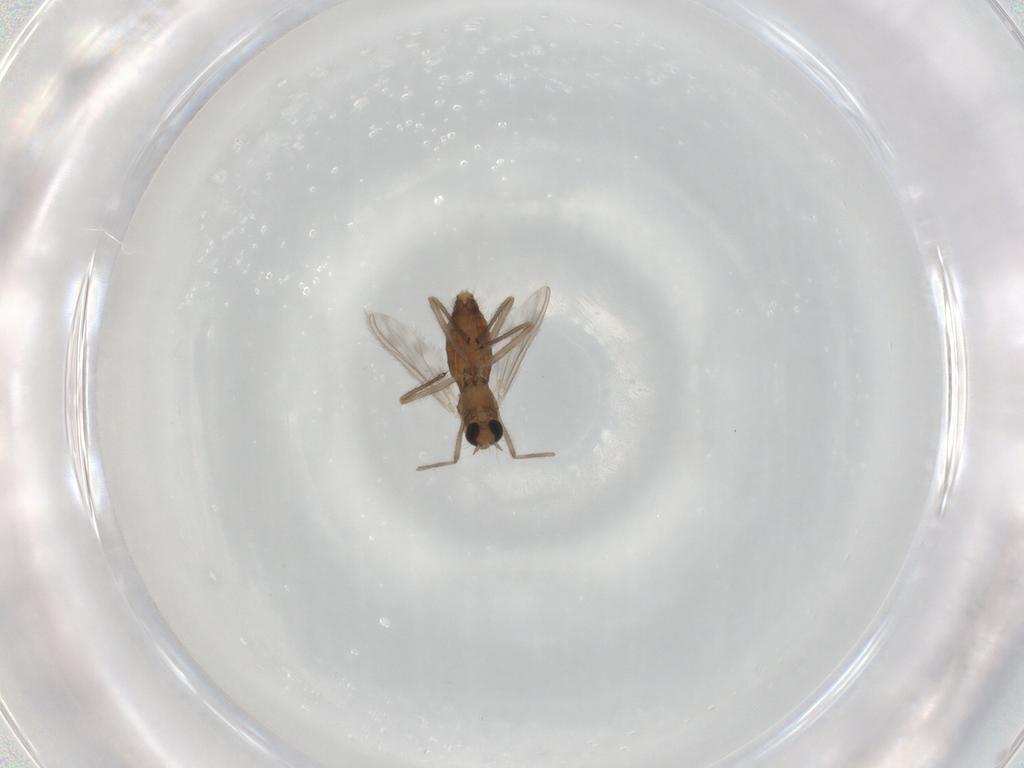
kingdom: Animalia
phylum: Arthropoda
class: Insecta
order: Diptera
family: Chironomidae
